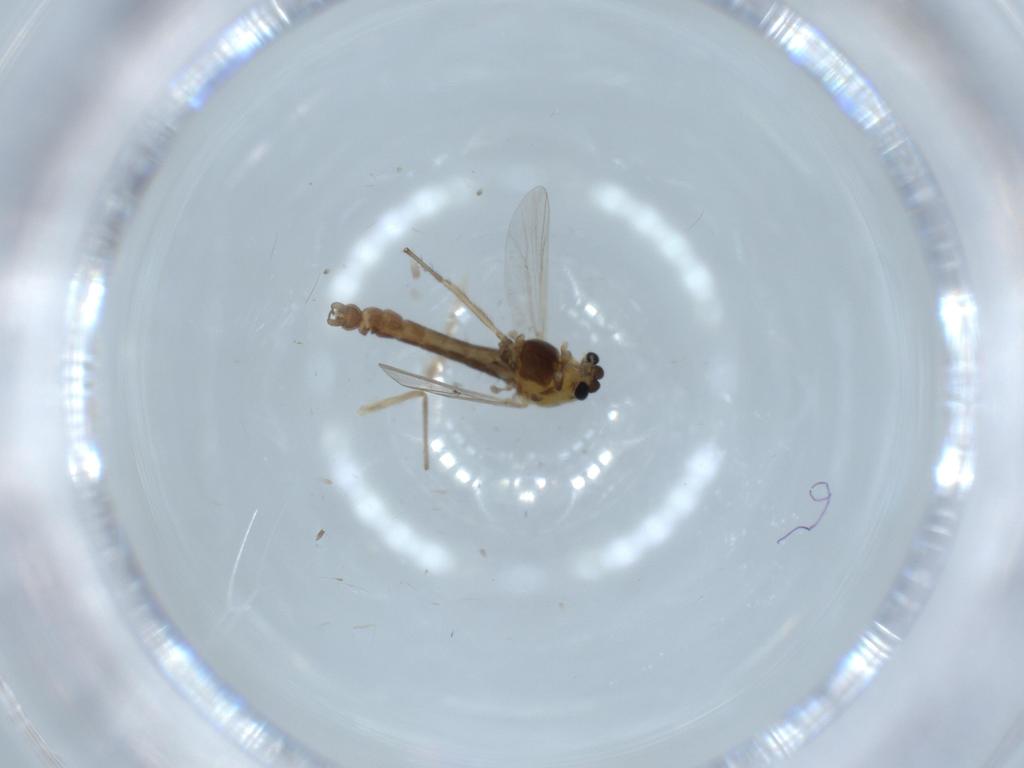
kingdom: Animalia
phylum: Arthropoda
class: Insecta
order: Diptera
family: Chironomidae
